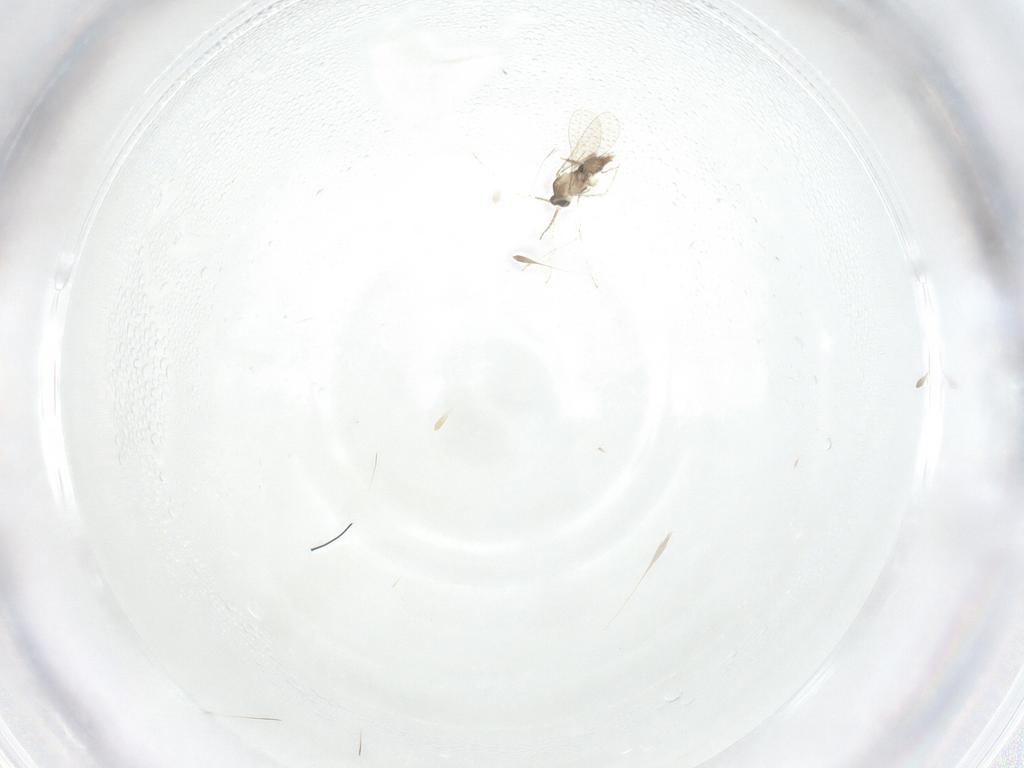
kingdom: Animalia
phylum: Arthropoda
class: Insecta
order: Diptera
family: Sciaridae
